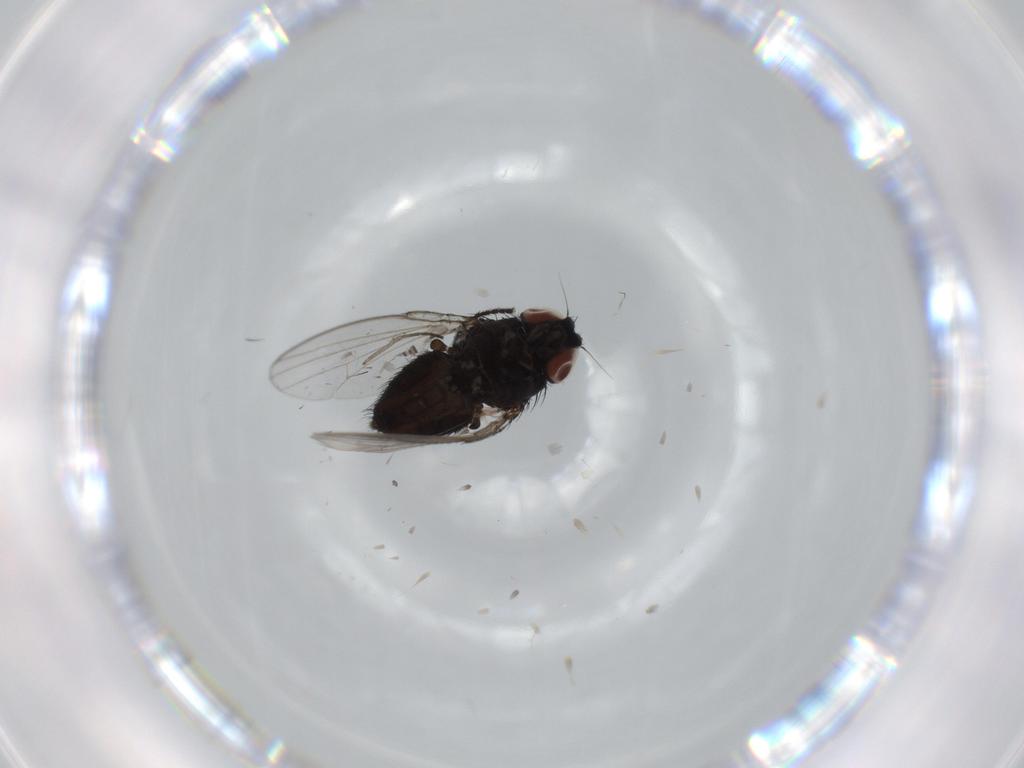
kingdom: Animalia
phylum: Arthropoda
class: Insecta
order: Diptera
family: Milichiidae
